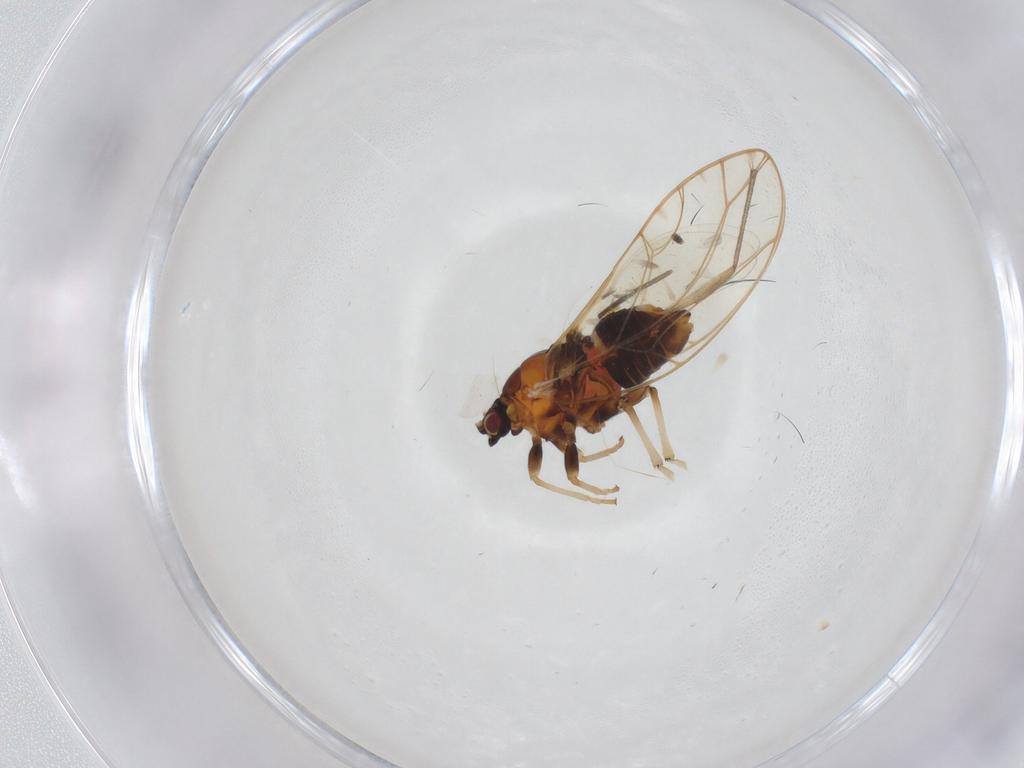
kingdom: Animalia
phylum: Arthropoda
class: Insecta
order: Hemiptera
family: Triozidae
